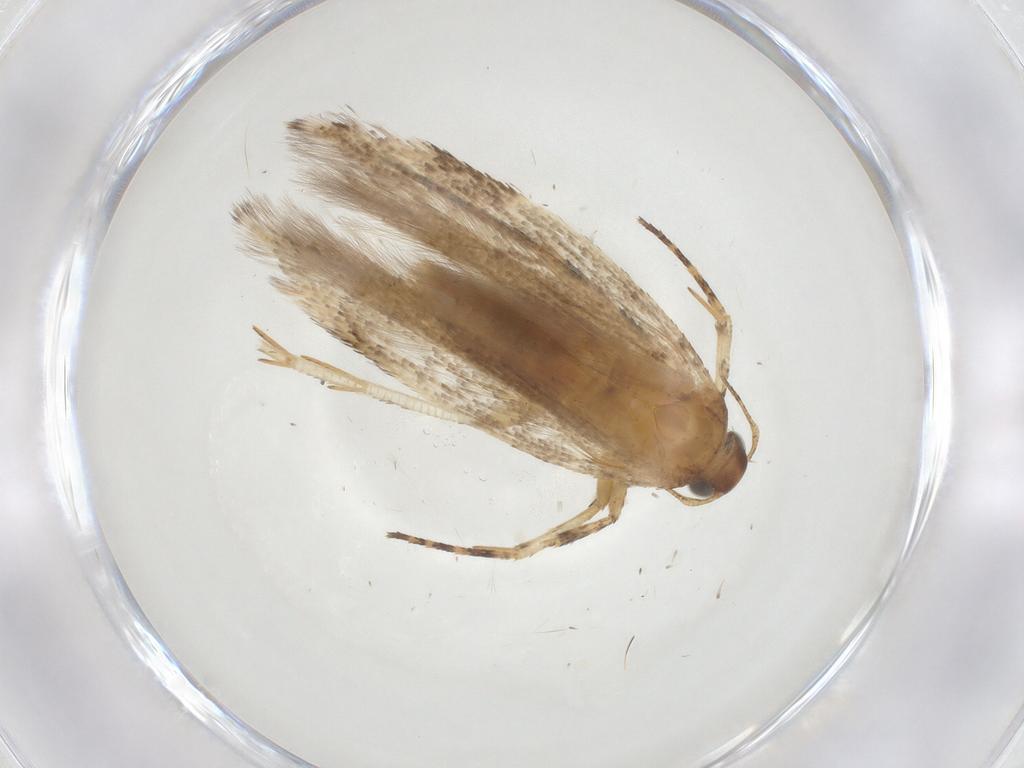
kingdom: Animalia
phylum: Arthropoda
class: Insecta
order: Lepidoptera
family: Gelechiidae
